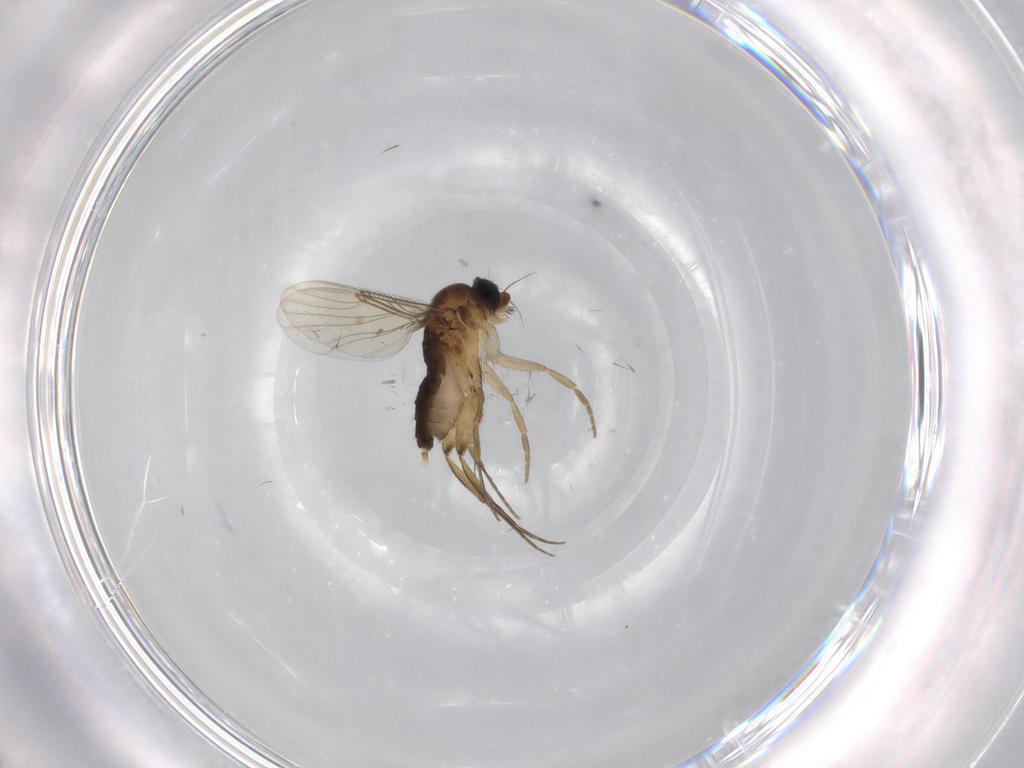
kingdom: Animalia
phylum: Arthropoda
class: Insecta
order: Diptera
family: Phoridae
